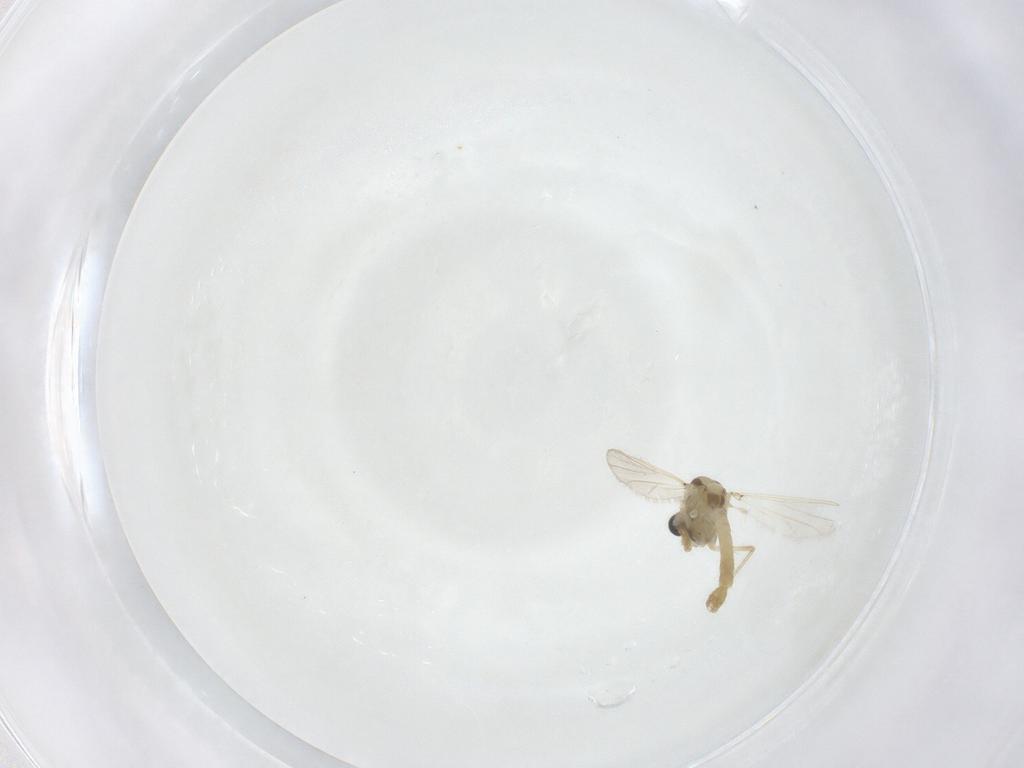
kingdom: Animalia
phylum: Arthropoda
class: Insecta
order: Diptera
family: Chironomidae
